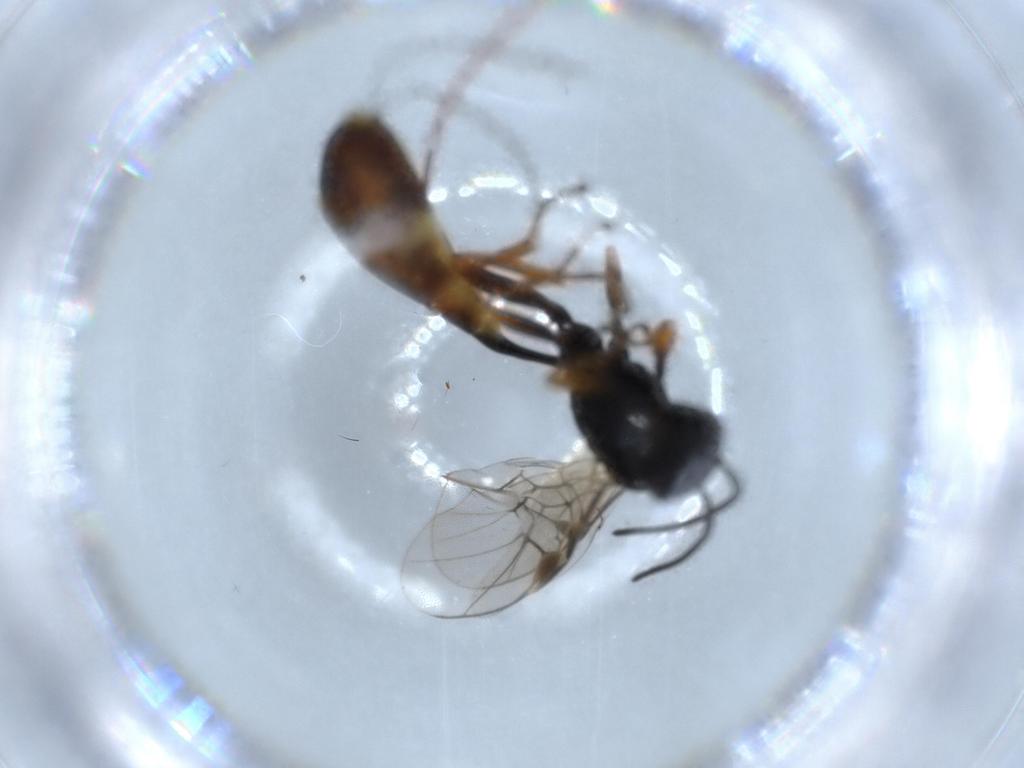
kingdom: Animalia
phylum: Arthropoda
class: Insecta
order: Hymenoptera
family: Ichneumonidae
